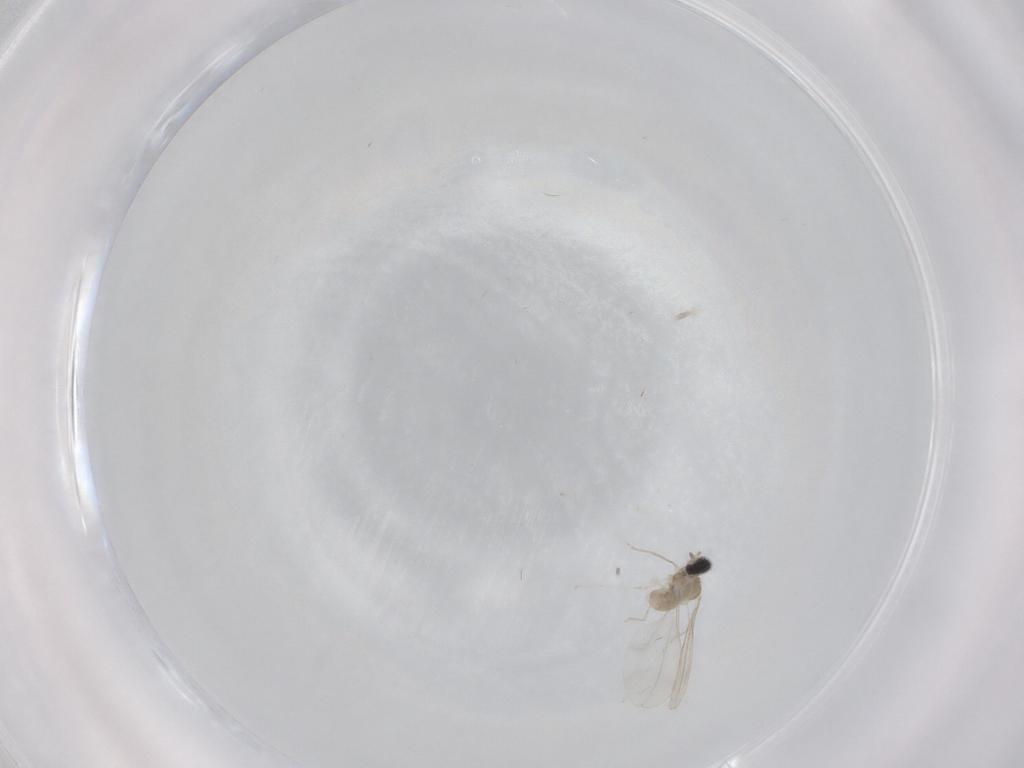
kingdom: Animalia
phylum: Arthropoda
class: Insecta
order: Diptera
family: Cecidomyiidae
